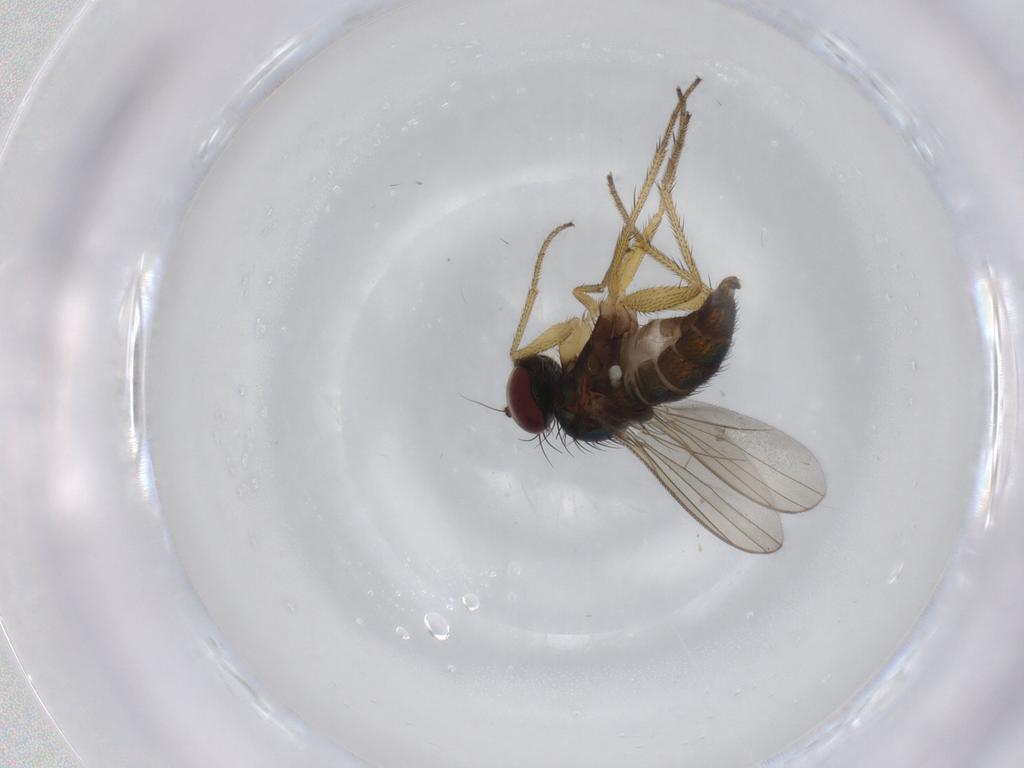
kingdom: Animalia
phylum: Arthropoda
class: Insecta
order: Diptera
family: Dolichopodidae
